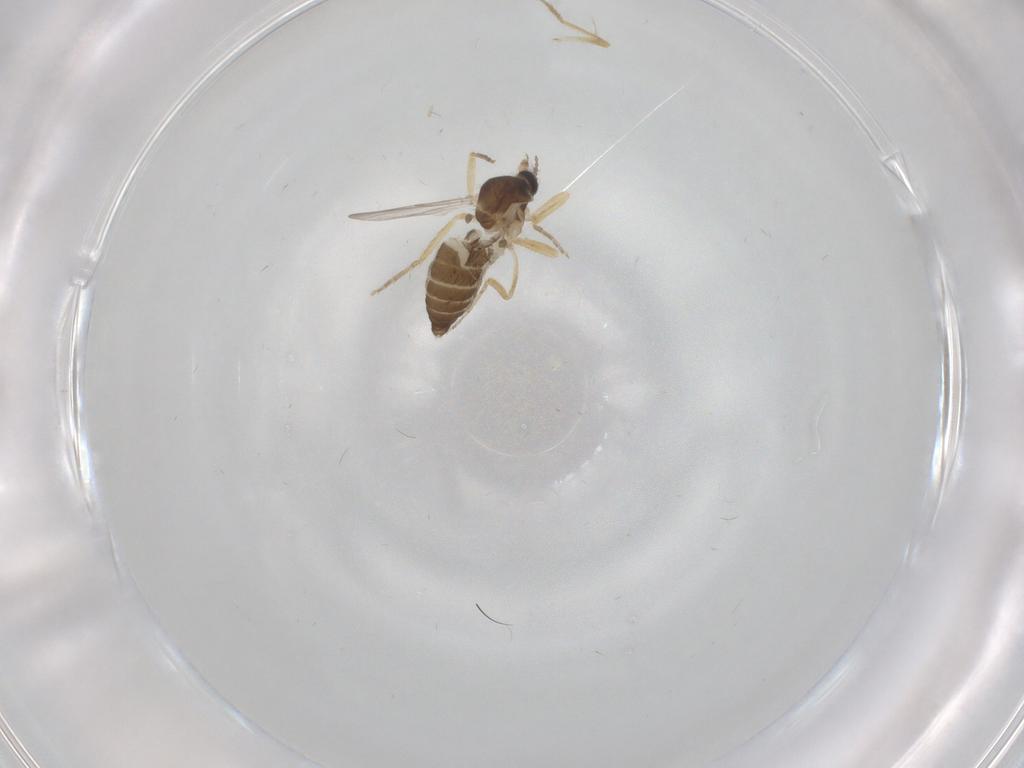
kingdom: Animalia
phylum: Arthropoda
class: Insecta
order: Diptera
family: Ceratopogonidae
